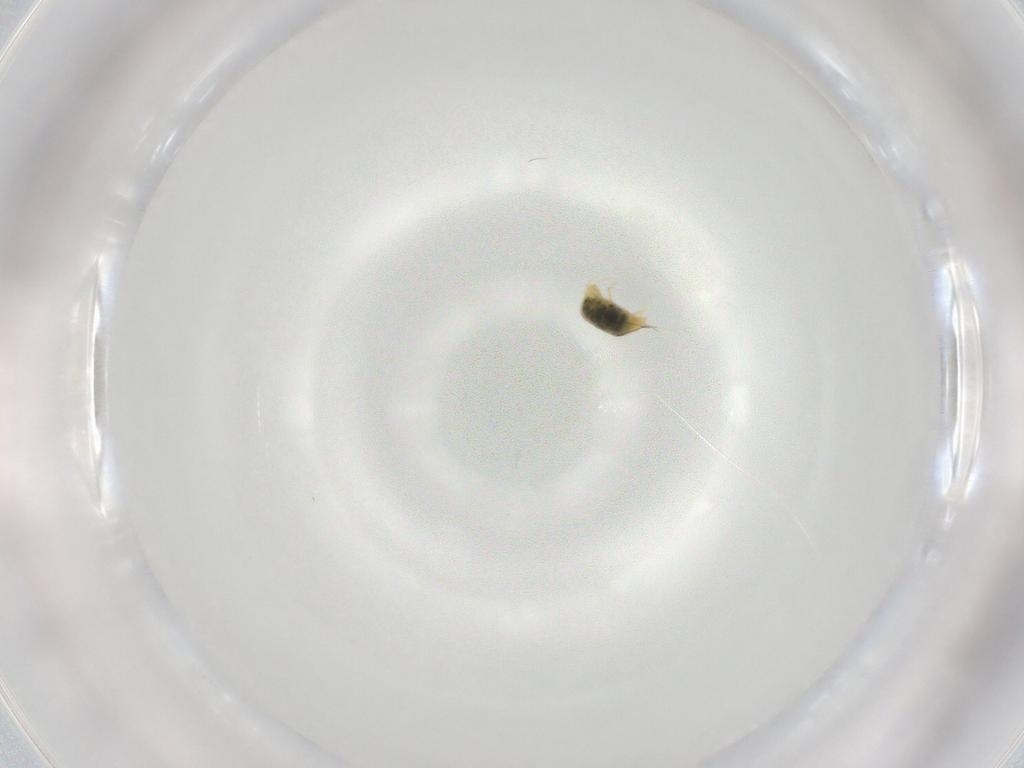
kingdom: Animalia
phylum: Arthropoda
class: Arachnida
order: Trombidiformes
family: Tetranychidae
